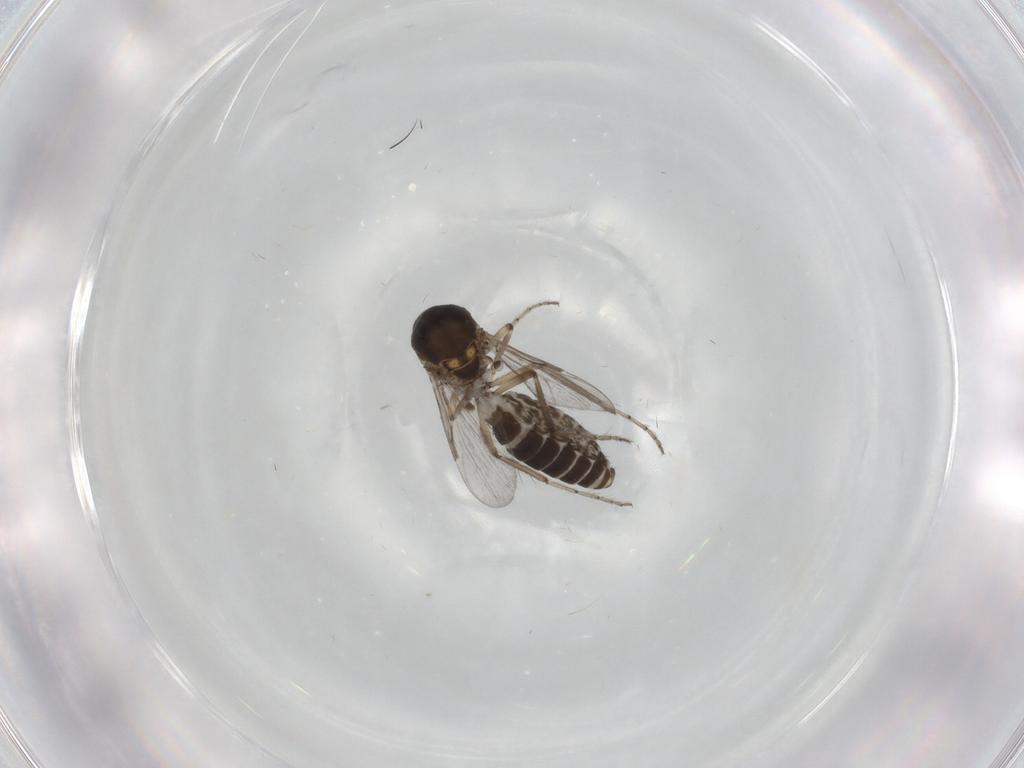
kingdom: Animalia
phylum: Arthropoda
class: Insecta
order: Diptera
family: Ceratopogonidae
